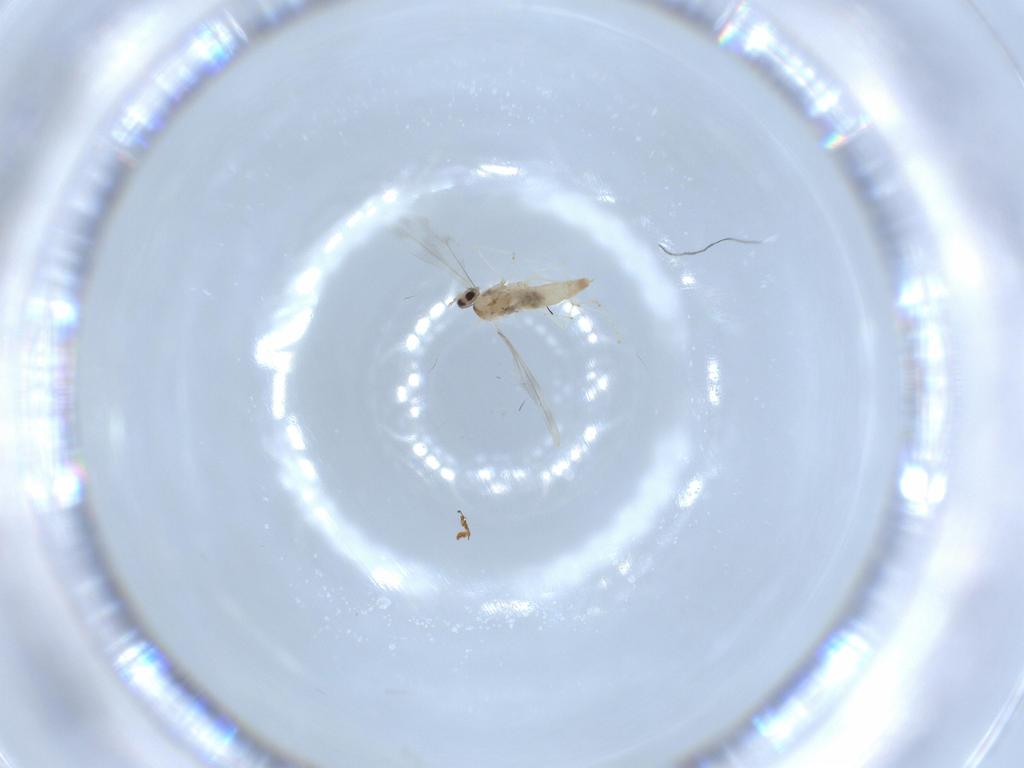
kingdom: Animalia
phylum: Arthropoda
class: Insecta
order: Diptera
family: Cecidomyiidae
